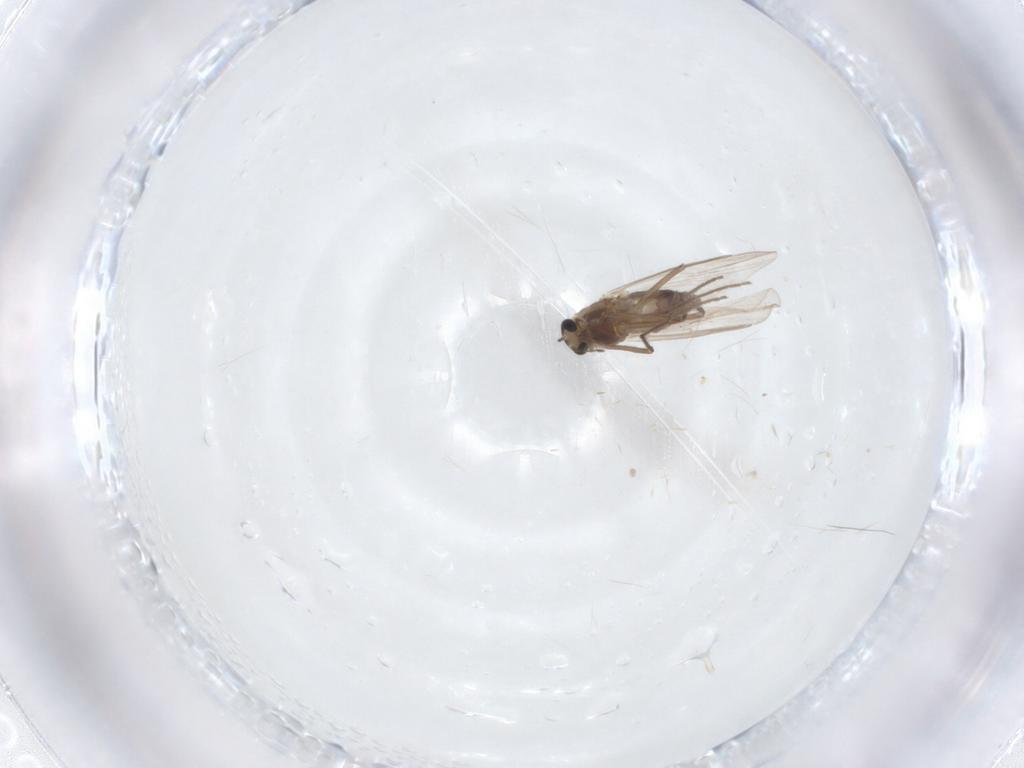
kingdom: Animalia
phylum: Arthropoda
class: Insecta
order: Diptera
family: Chironomidae
